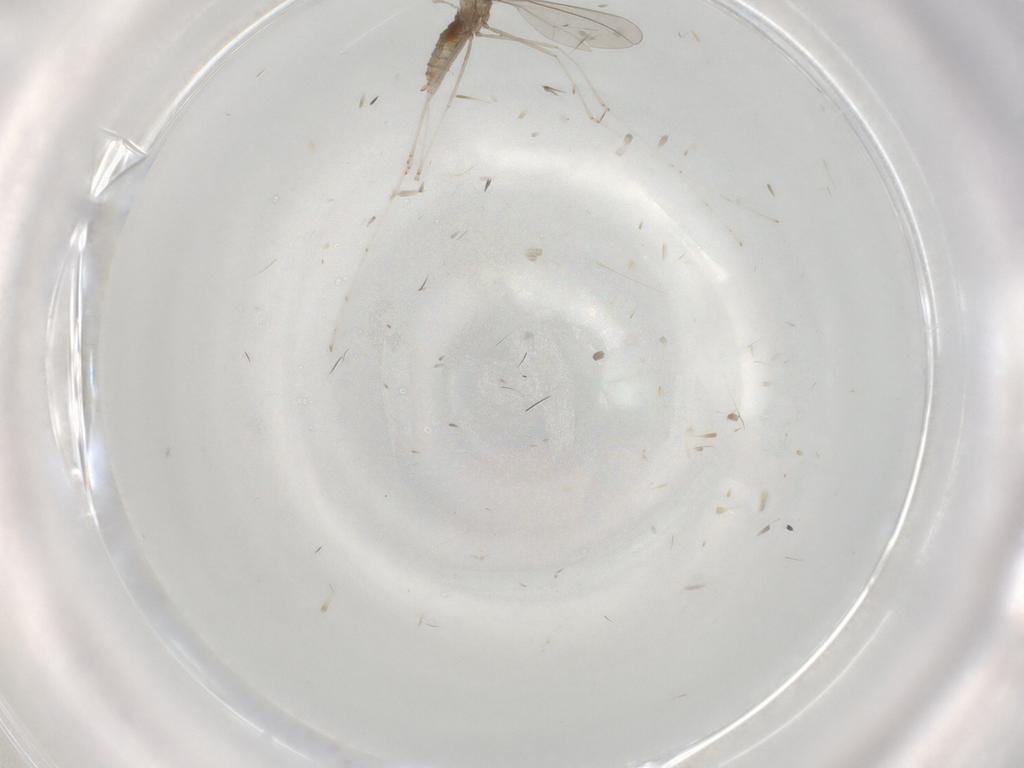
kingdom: Animalia
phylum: Arthropoda
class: Insecta
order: Diptera
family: Cecidomyiidae
